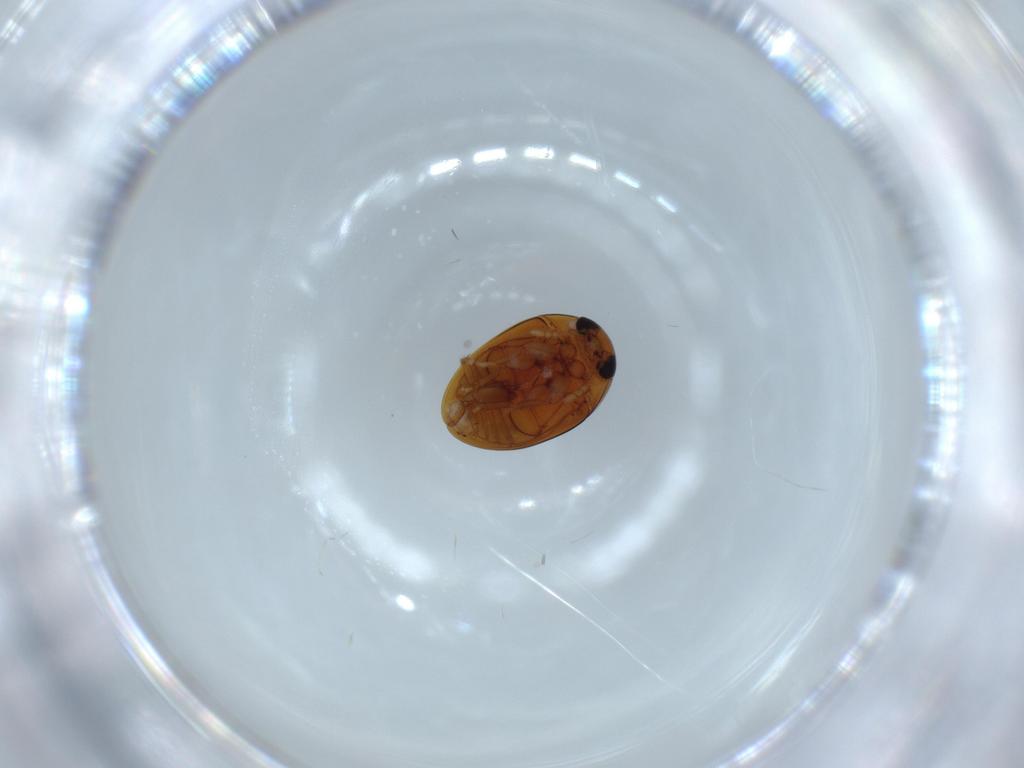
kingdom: Animalia
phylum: Arthropoda
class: Insecta
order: Coleoptera
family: Phalacridae
